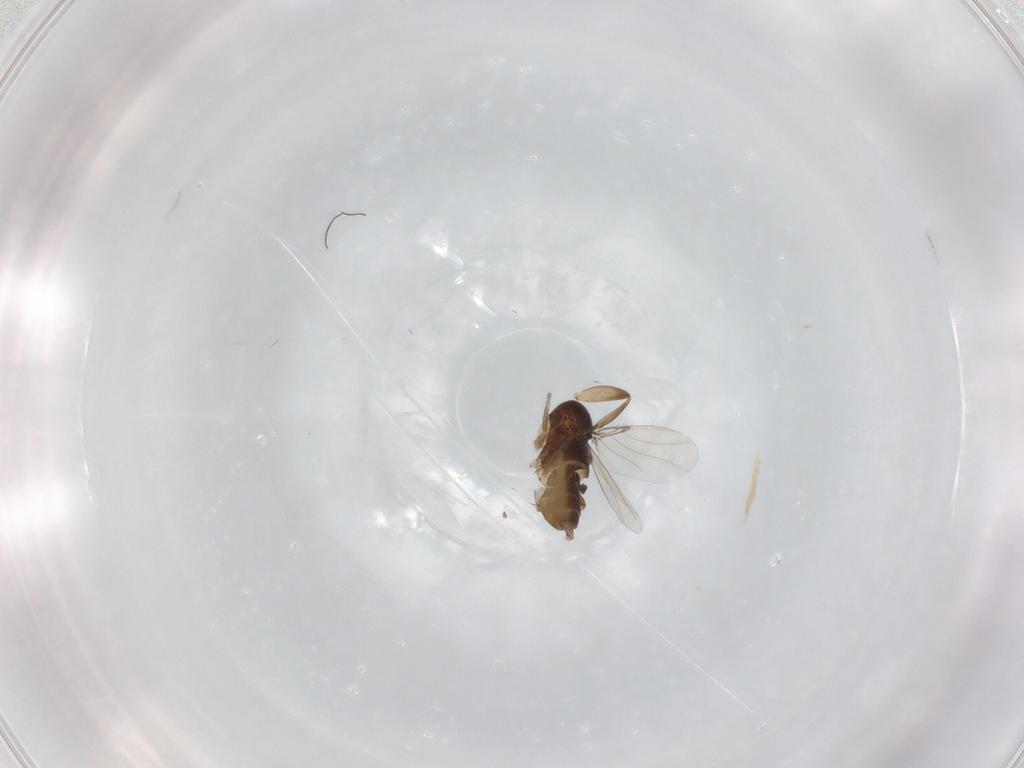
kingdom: Animalia
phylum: Arthropoda
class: Insecta
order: Diptera
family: Phoridae
